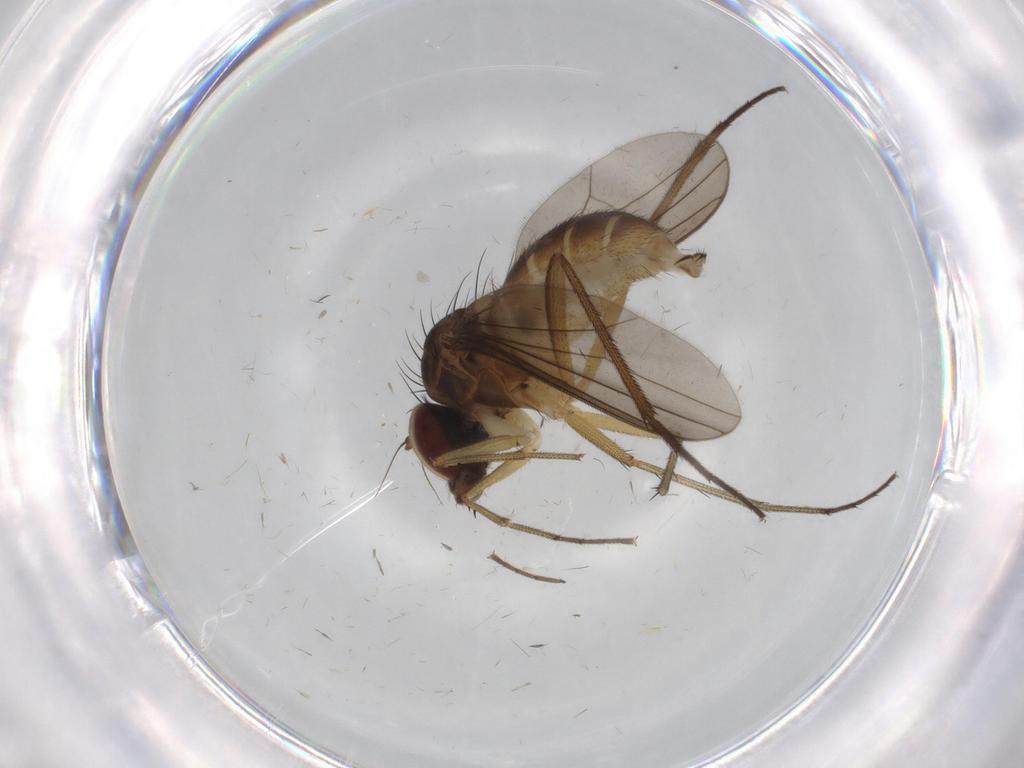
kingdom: Animalia
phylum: Arthropoda
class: Insecta
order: Diptera
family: Dolichopodidae
